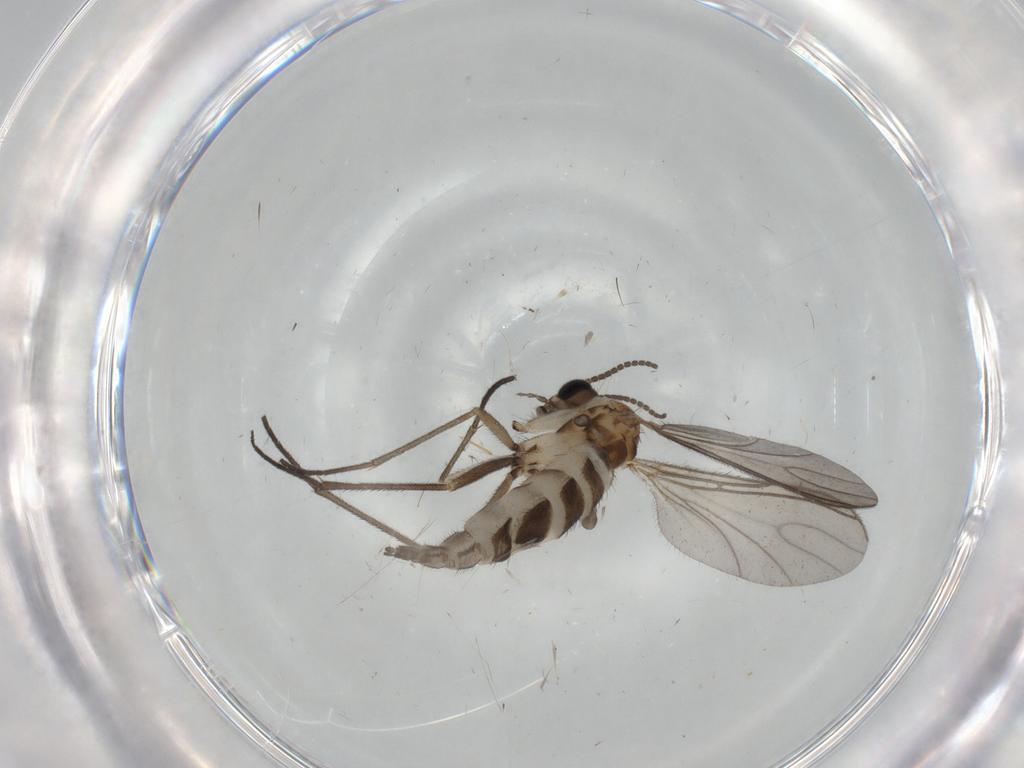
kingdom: Animalia
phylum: Arthropoda
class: Insecta
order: Diptera
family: Sciaridae
